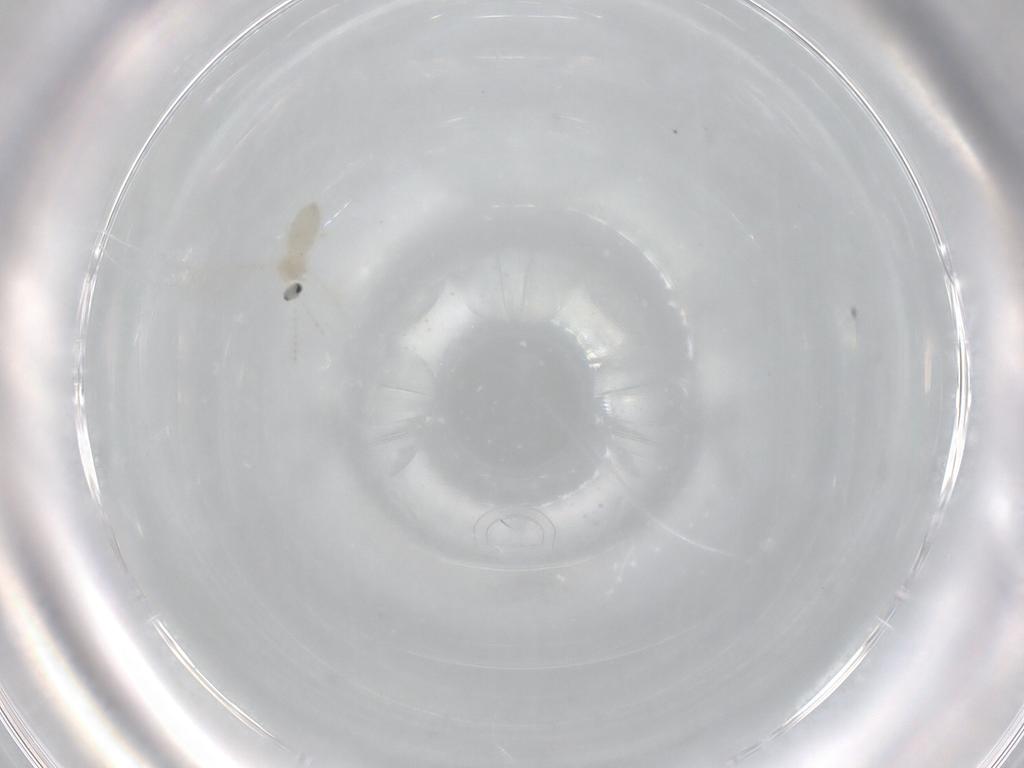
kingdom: Animalia
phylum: Arthropoda
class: Insecta
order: Diptera
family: Cecidomyiidae
